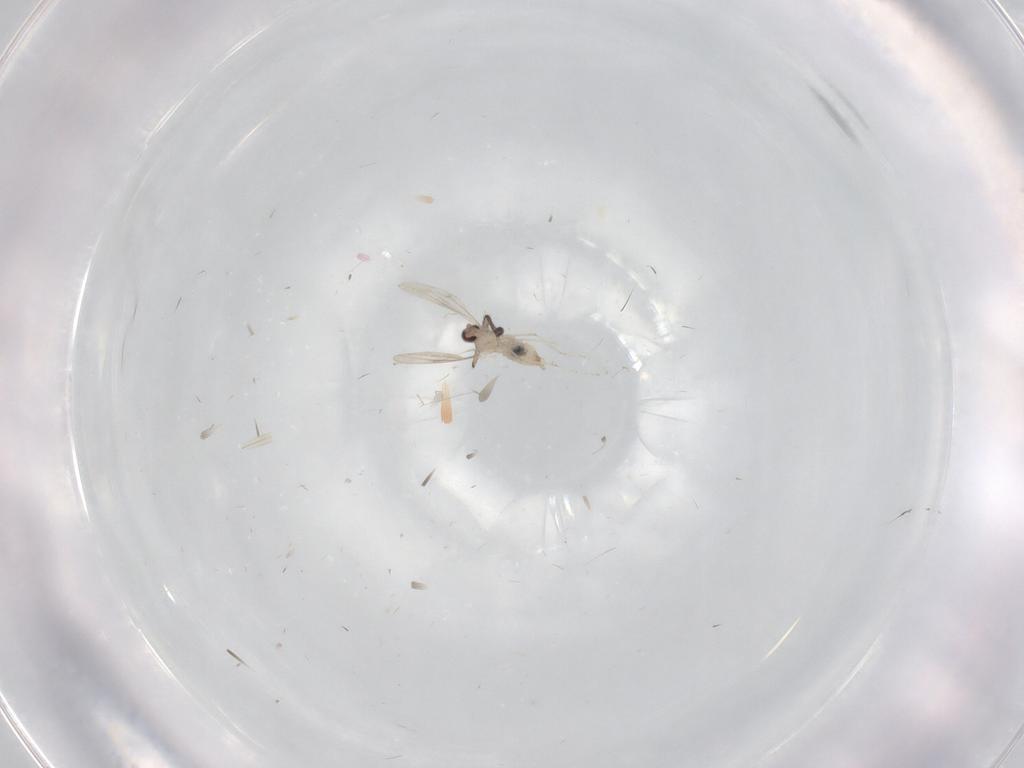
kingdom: Animalia
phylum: Arthropoda
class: Insecta
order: Diptera
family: Sciaridae
